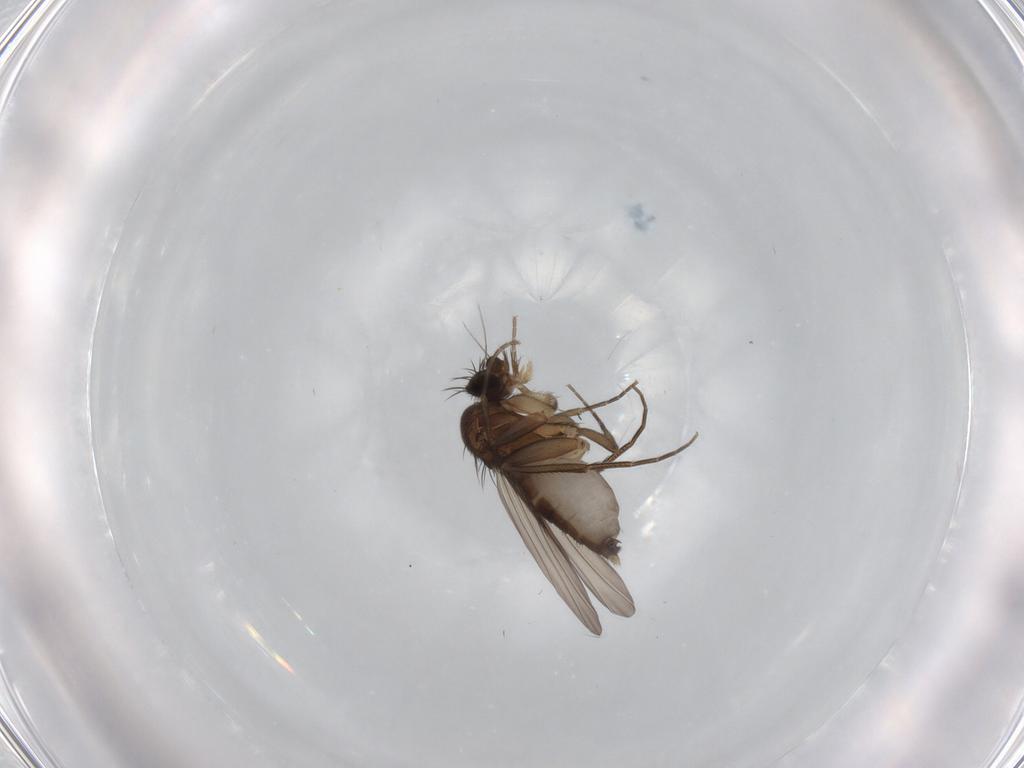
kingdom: Animalia
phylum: Arthropoda
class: Insecta
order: Diptera
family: Phoridae
